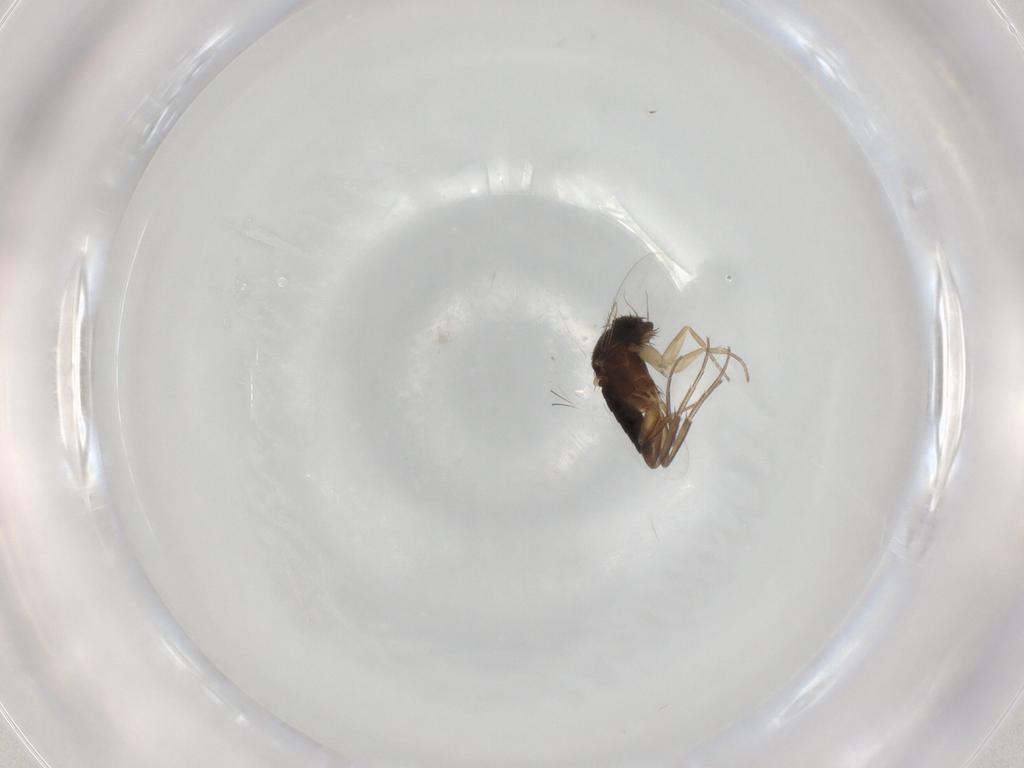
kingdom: Animalia
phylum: Arthropoda
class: Insecta
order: Diptera
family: Phoridae
